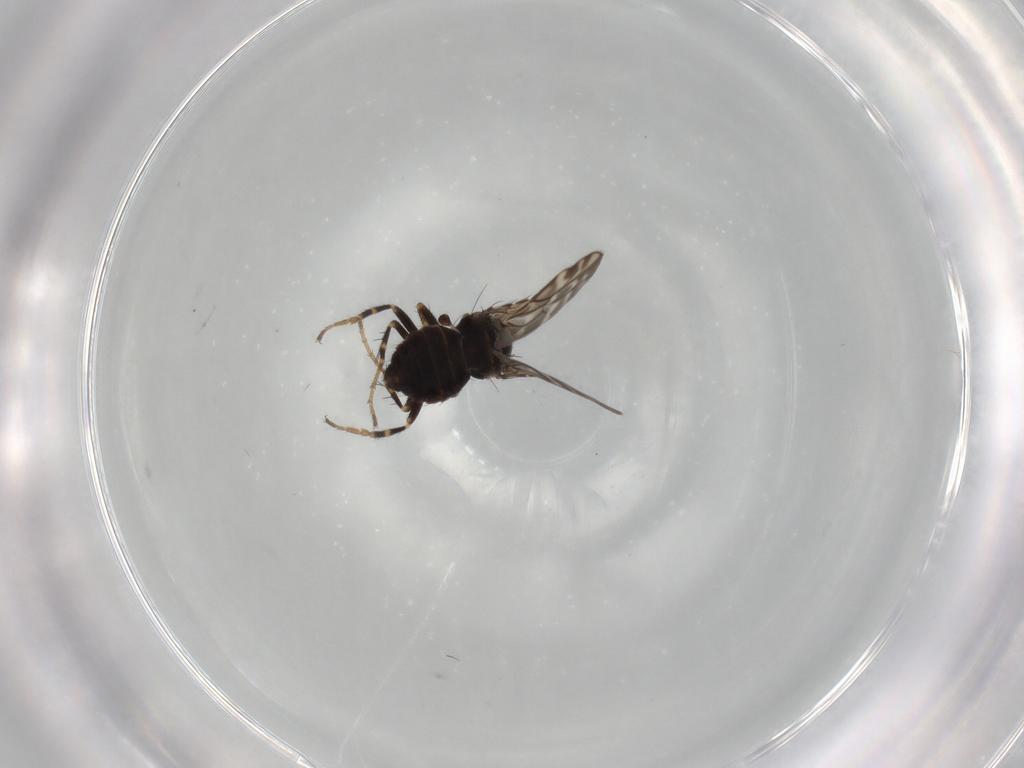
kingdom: Animalia
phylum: Arthropoda
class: Insecta
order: Diptera
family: Sphaeroceridae
